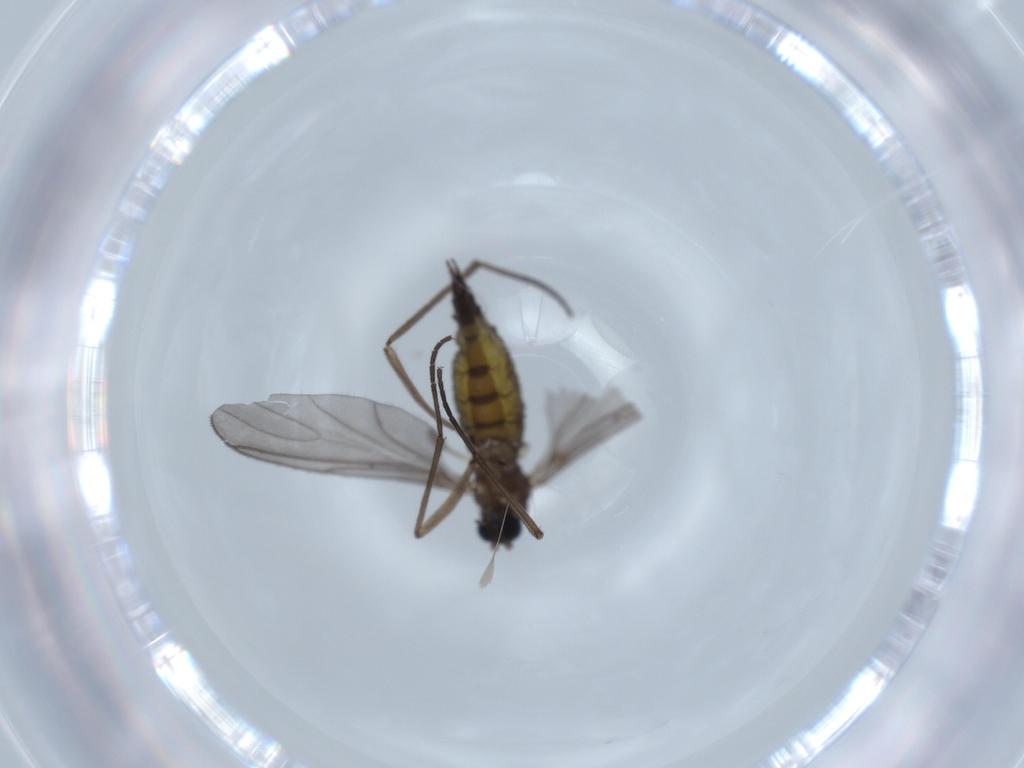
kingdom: Animalia
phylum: Arthropoda
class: Insecta
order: Diptera
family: Sciaridae
